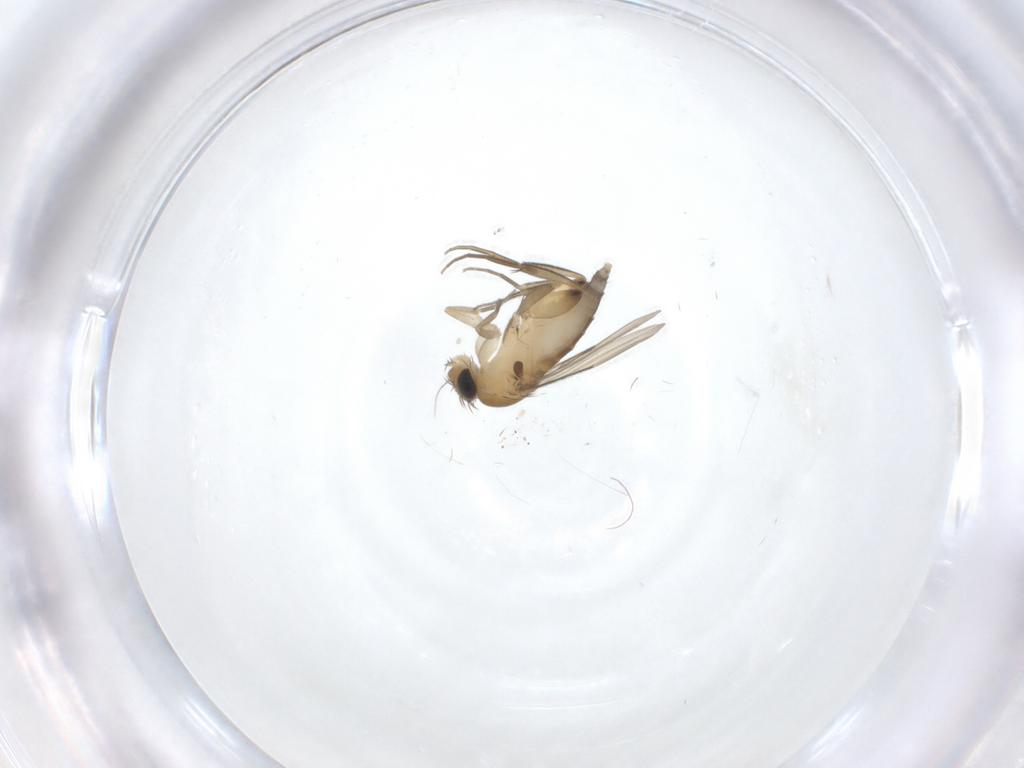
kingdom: Animalia
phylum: Arthropoda
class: Insecta
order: Diptera
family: Phoridae
